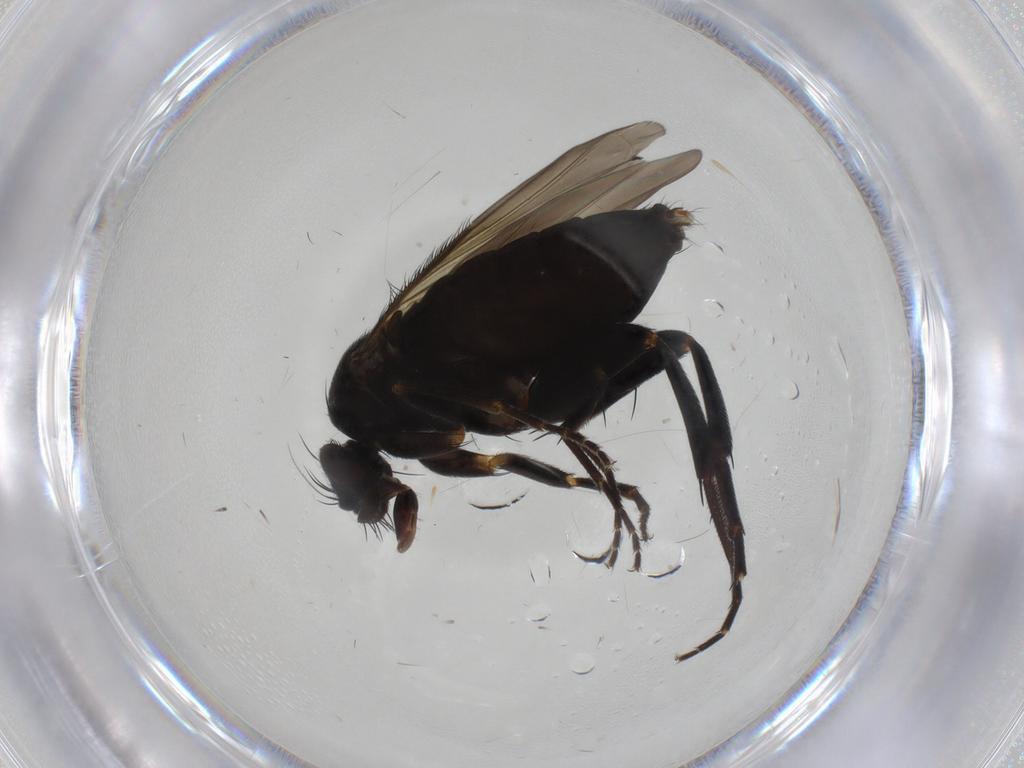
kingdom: Animalia
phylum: Arthropoda
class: Insecta
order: Diptera
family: Phoridae
